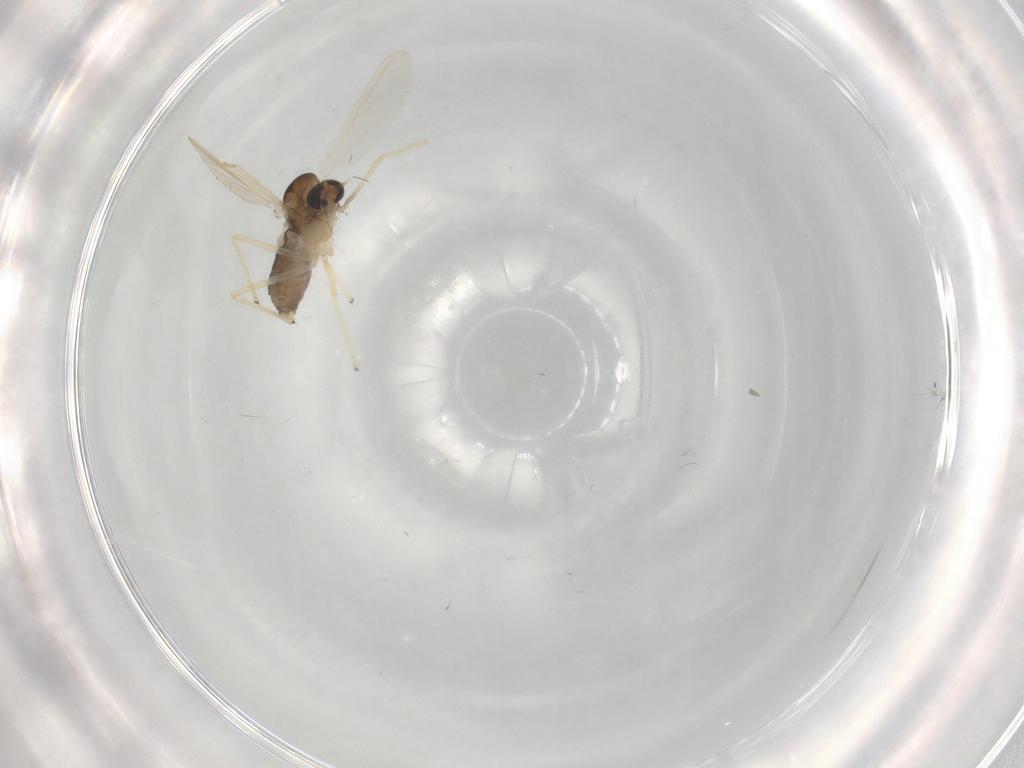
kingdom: Animalia
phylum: Arthropoda
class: Insecta
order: Diptera
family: Chironomidae
